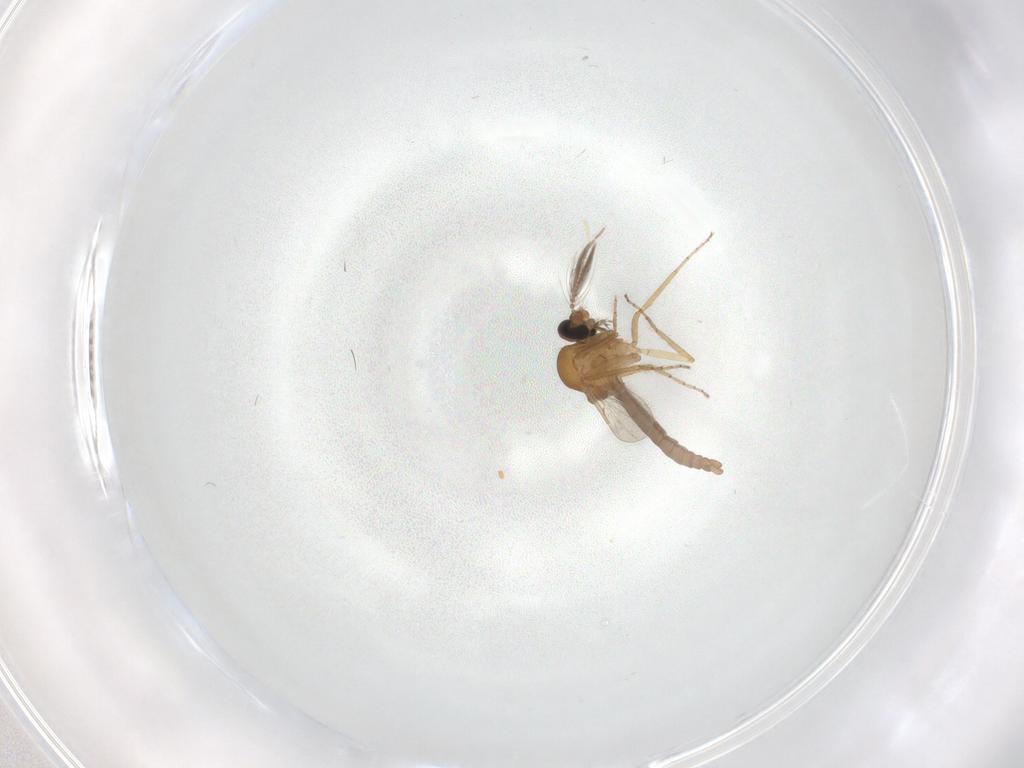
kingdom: Animalia
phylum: Arthropoda
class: Insecta
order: Diptera
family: Ceratopogonidae
